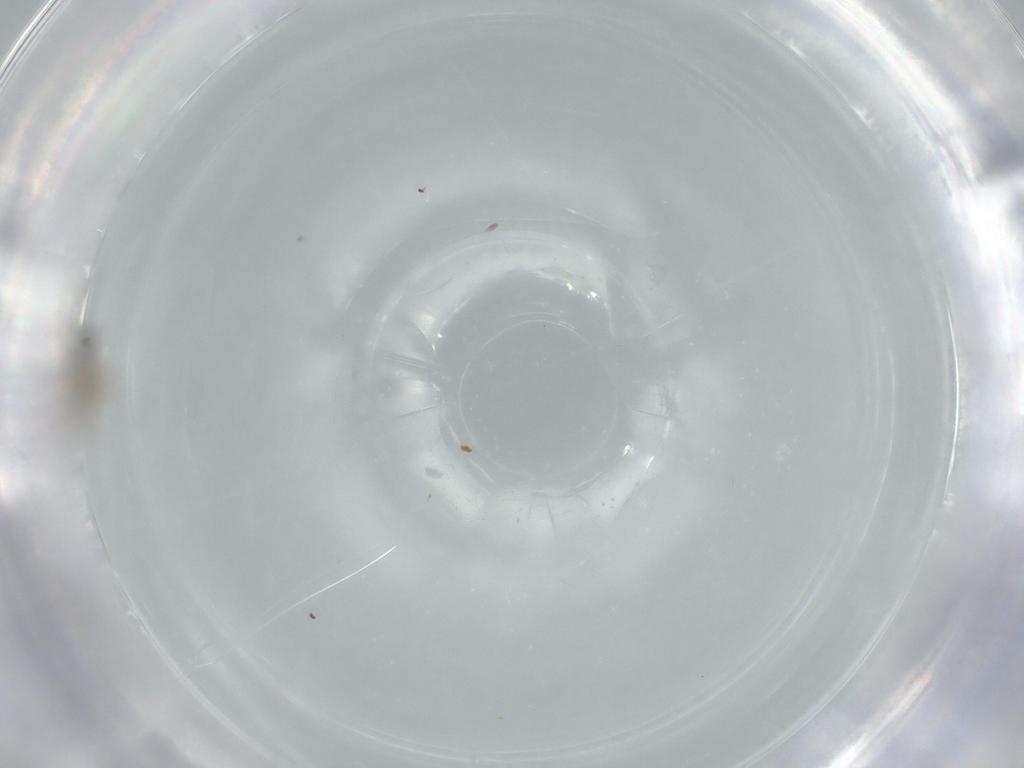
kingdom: Animalia
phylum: Arthropoda
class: Insecta
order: Diptera
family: Cecidomyiidae
